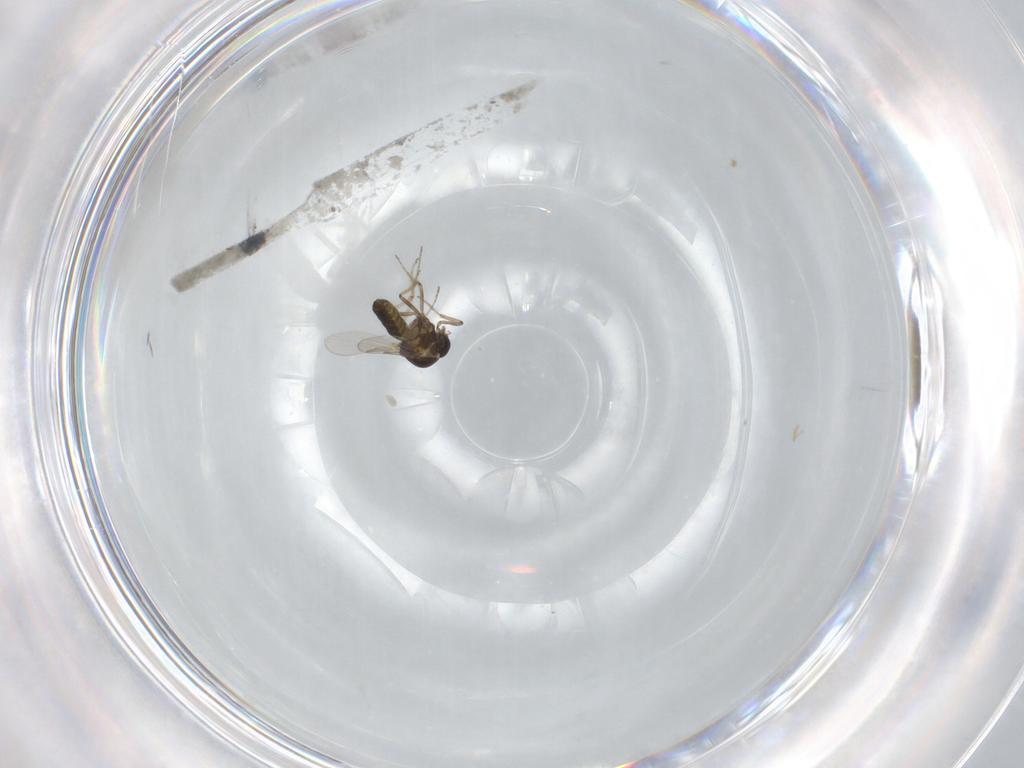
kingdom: Animalia
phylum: Arthropoda
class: Insecta
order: Diptera
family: Ceratopogonidae
